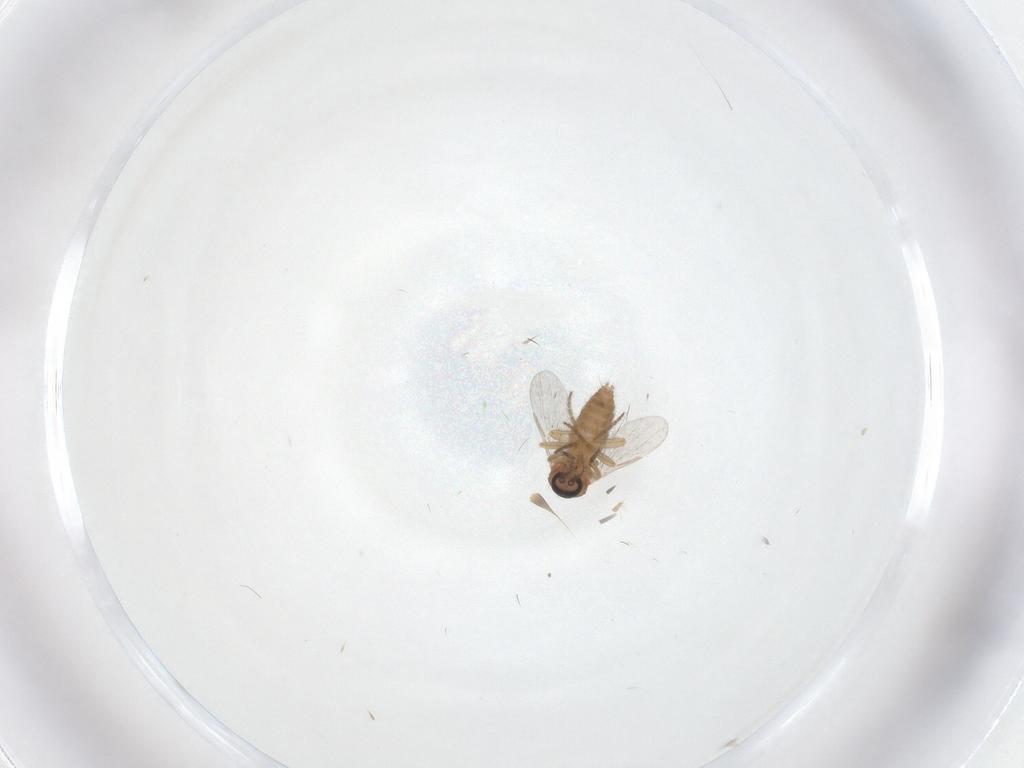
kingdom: Animalia
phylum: Arthropoda
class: Insecta
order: Diptera
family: Ceratopogonidae
